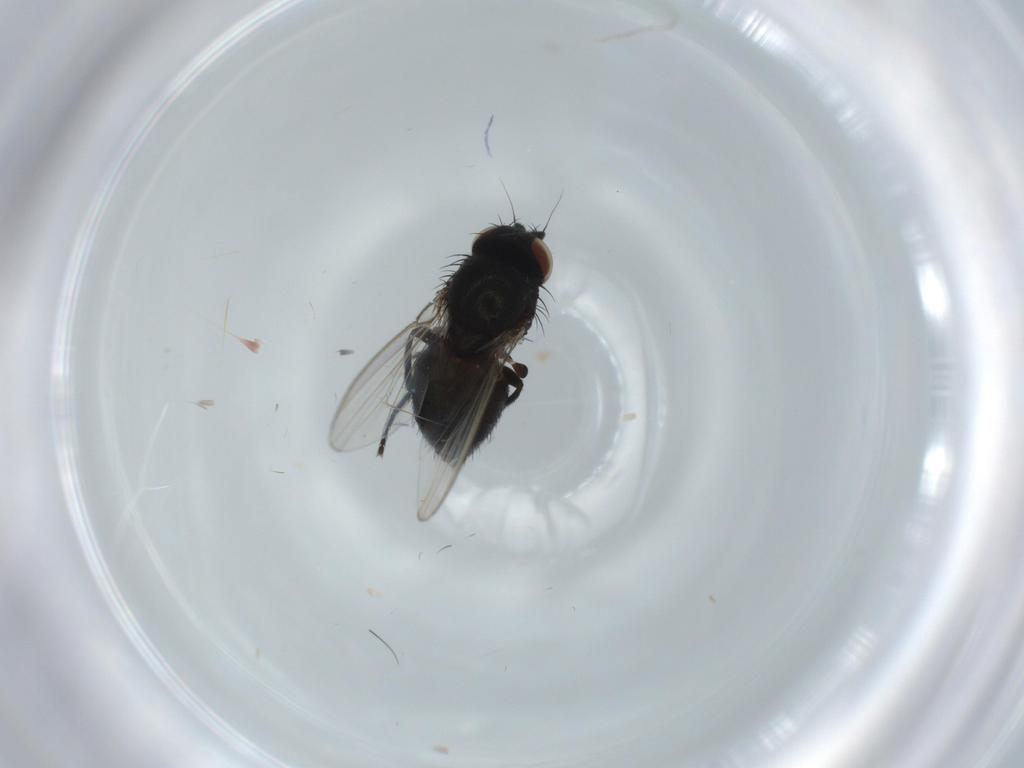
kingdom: Animalia
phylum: Arthropoda
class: Insecta
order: Diptera
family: Milichiidae
